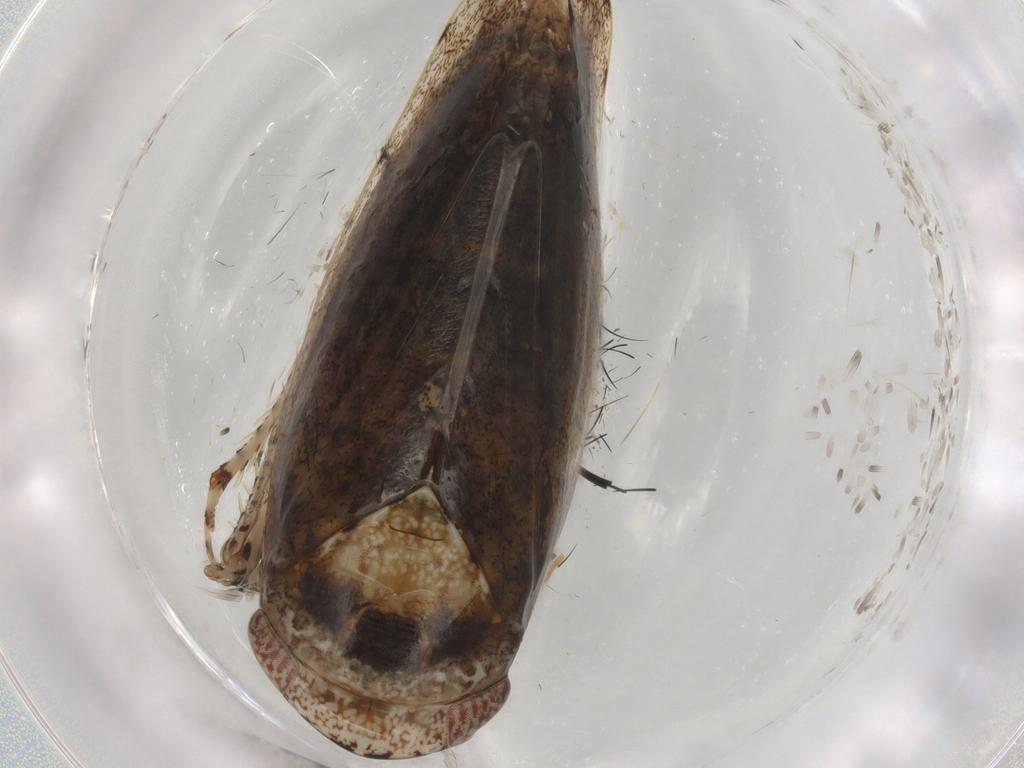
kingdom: Animalia
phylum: Arthropoda
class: Insecta
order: Hemiptera
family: Aphididae
